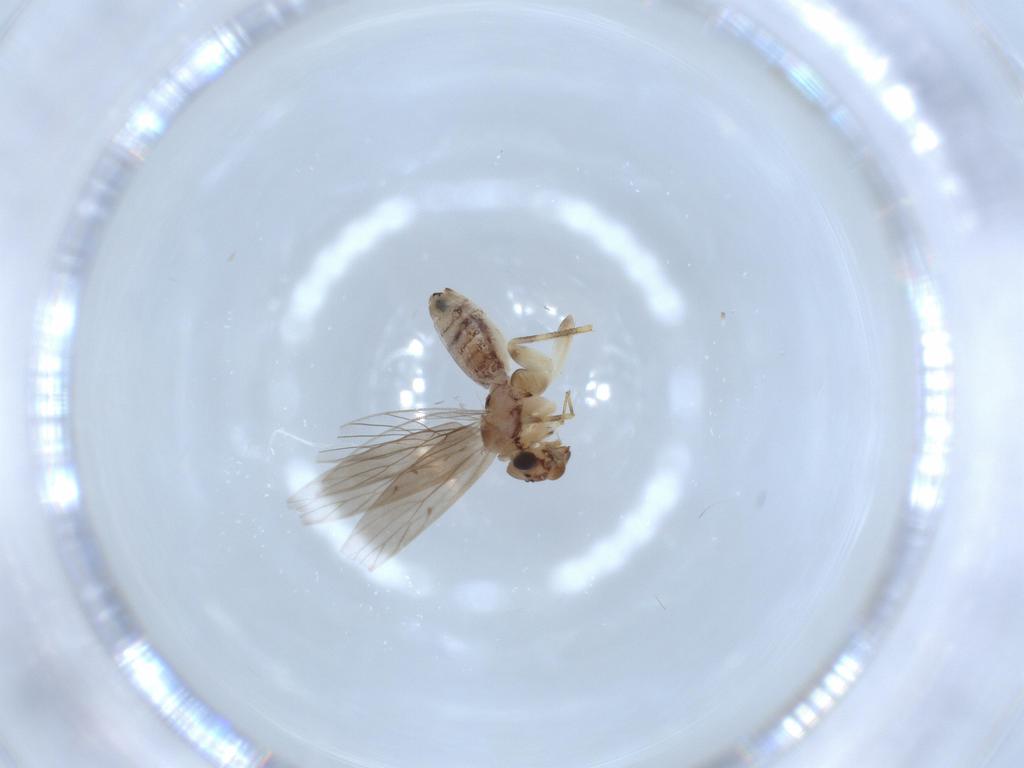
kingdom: Animalia
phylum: Arthropoda
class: Insecta
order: Psocodea
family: Lepidopsocidae
